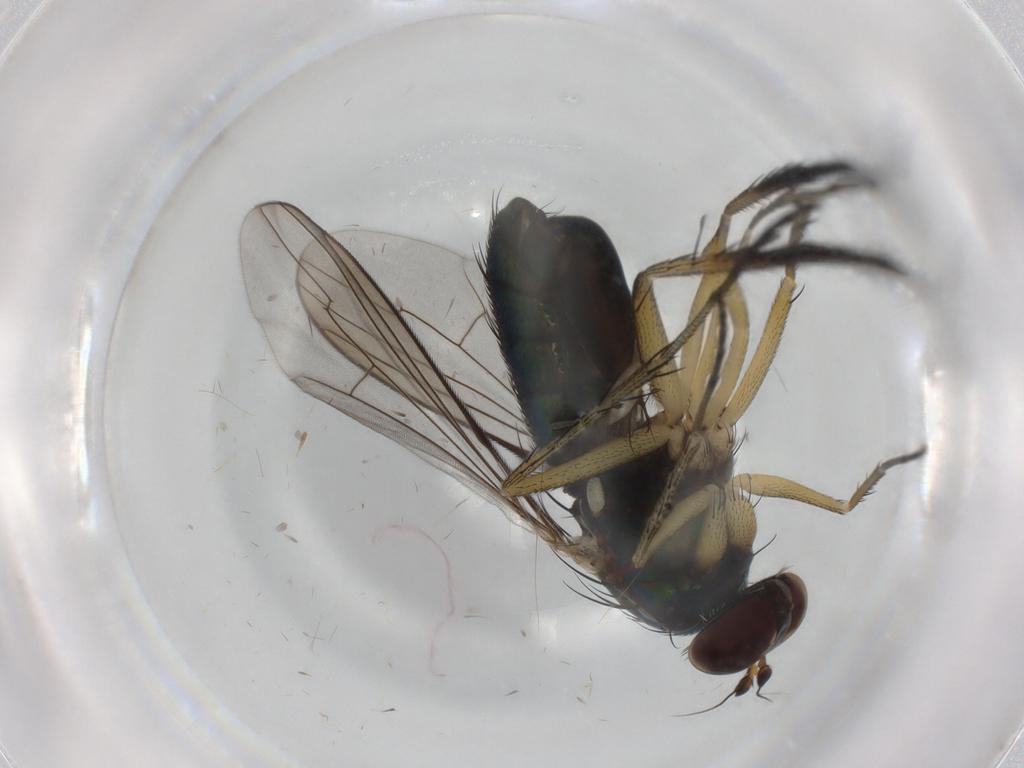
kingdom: Animalia
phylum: Arthropoda
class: Insecta
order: Diptera
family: Dolichopodidae
